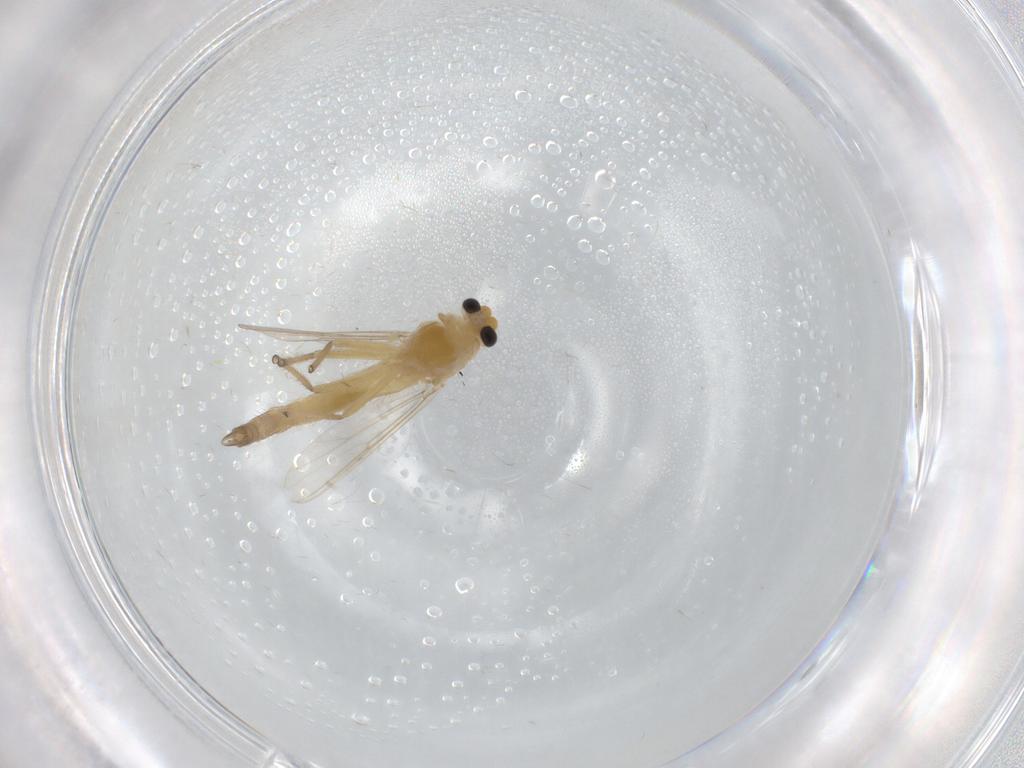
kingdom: Animalia
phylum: Arthropoda
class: Insecta
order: Diptera
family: Chironomidae
